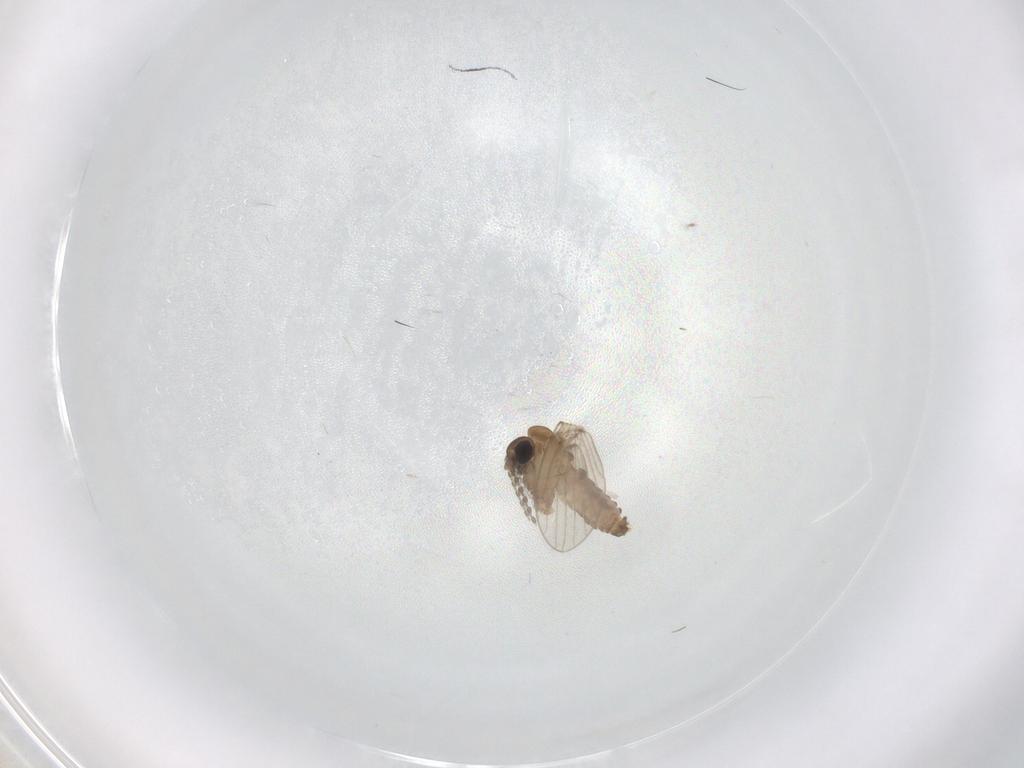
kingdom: Animalia
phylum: Arthropoda
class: Insecta
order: Diptera
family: Chironomidae
